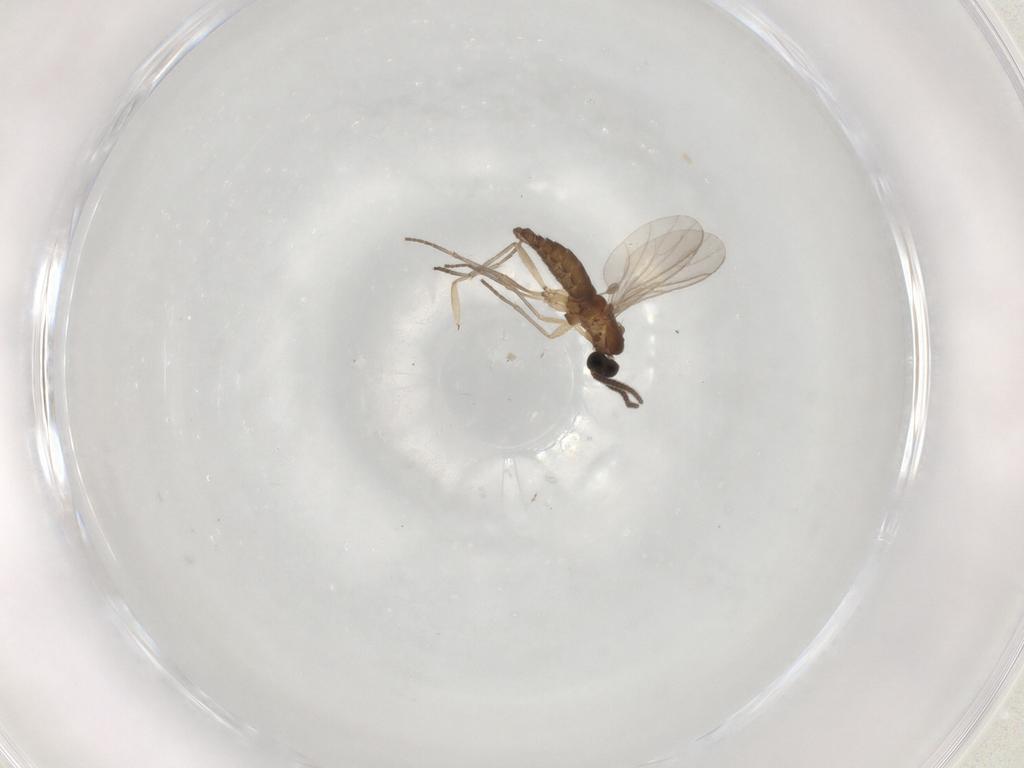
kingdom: Animalia
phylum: Arthropoda
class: Insecta
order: Diptera
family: Sciaridae
